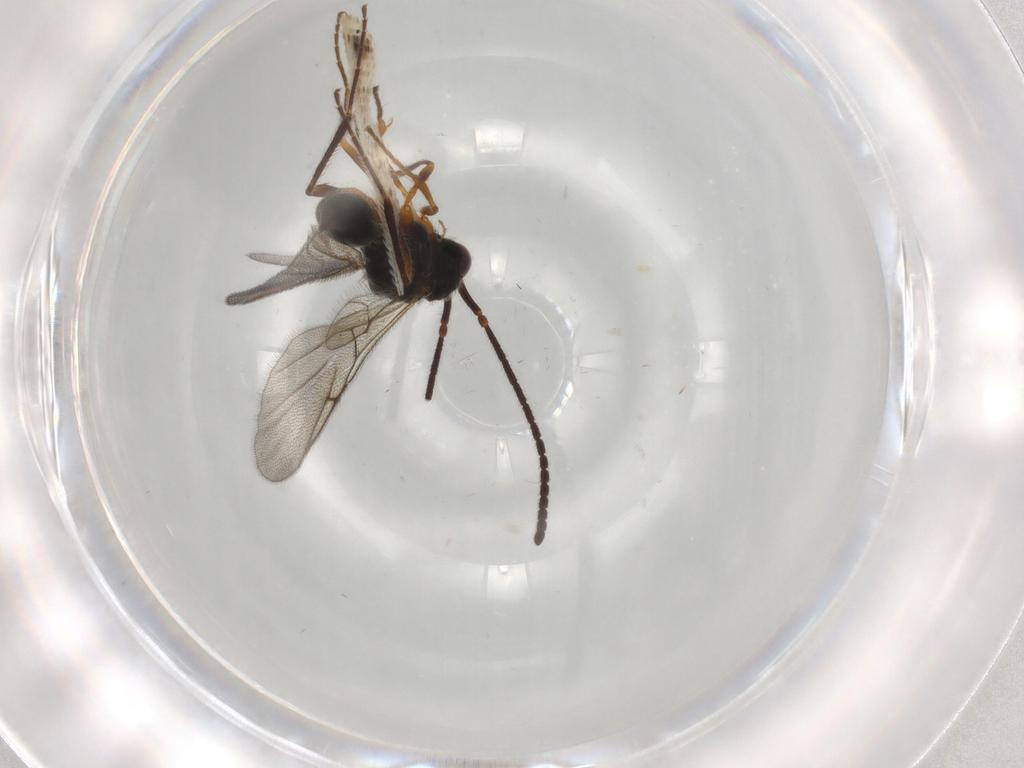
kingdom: Animalia
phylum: Arthropoda
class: Insecta
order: Hymenoptera
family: Diapriidae
